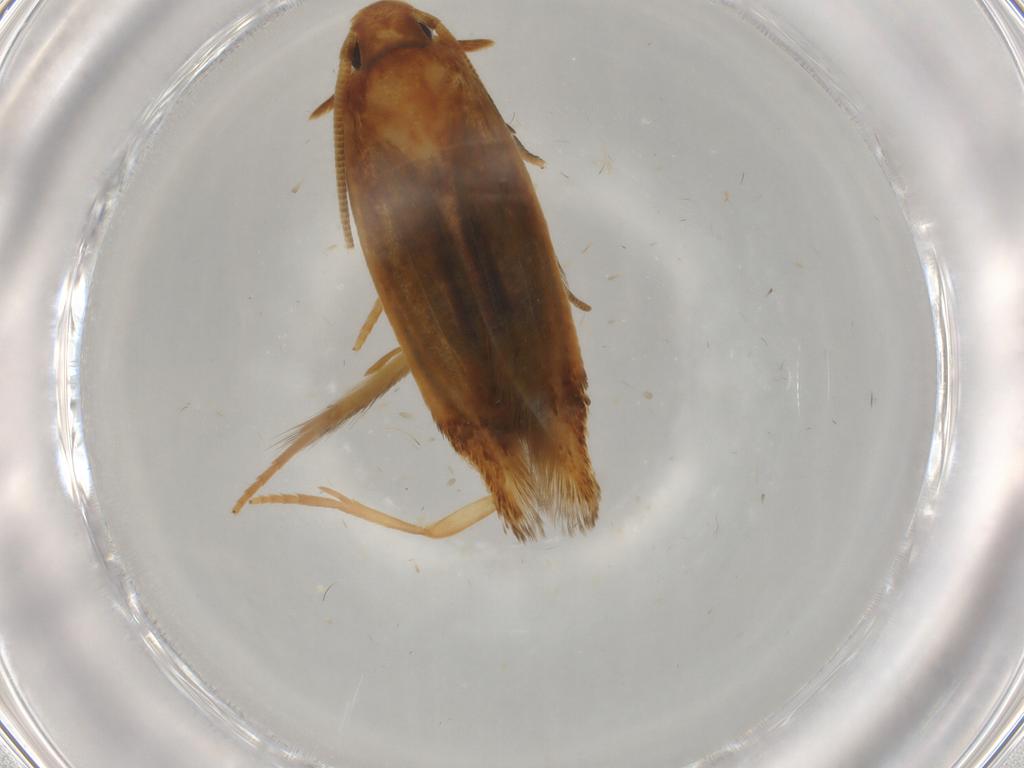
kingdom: Animalia
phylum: Arthropoda
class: Insecta
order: Lepidoptera
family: Tineidae
